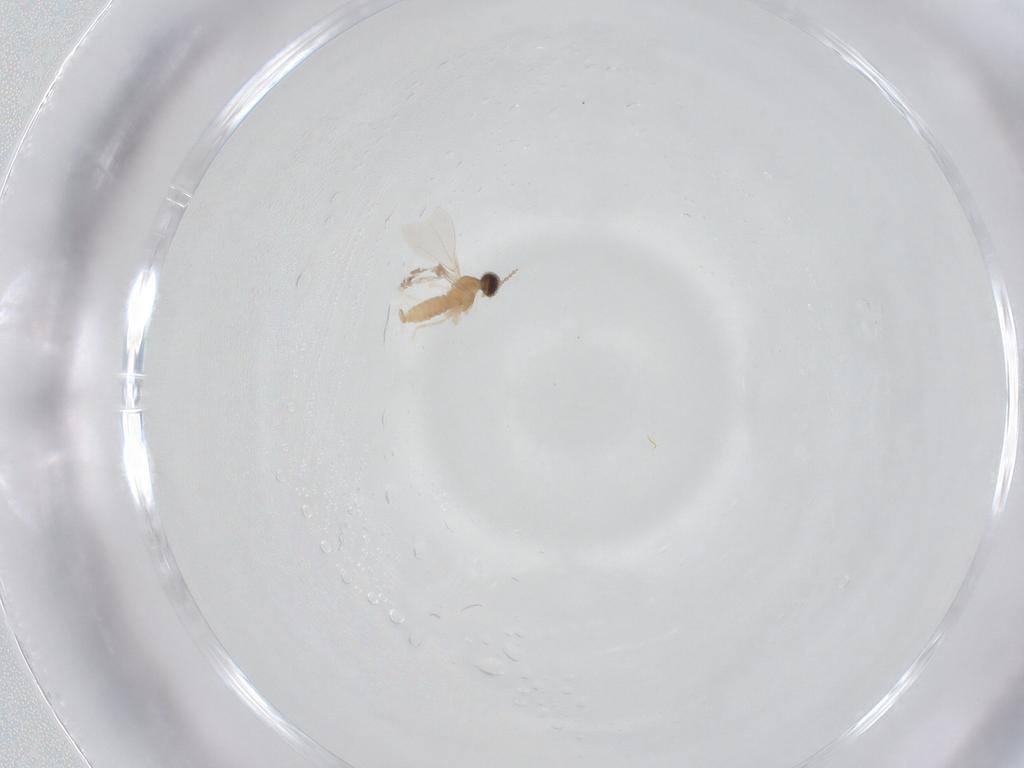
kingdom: Animalia
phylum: Arthropoda
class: Insecta
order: Diptera
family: Cecidomyiidae
